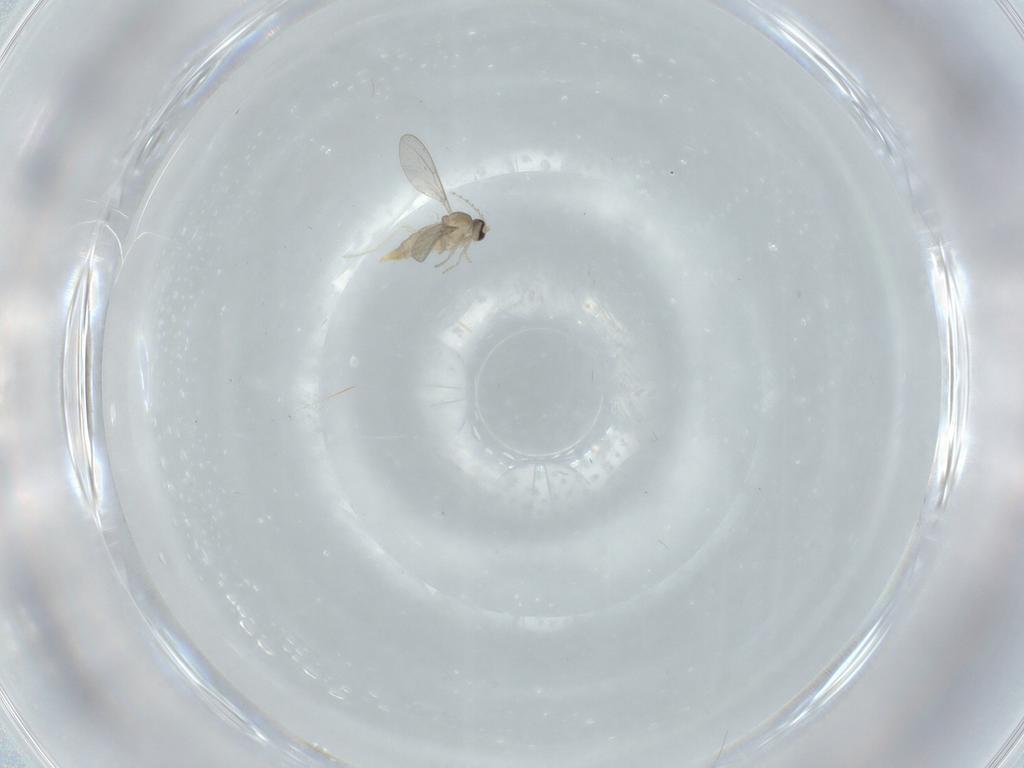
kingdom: Animalia
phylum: Arthropoda
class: Insecta
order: Diptera
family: Cecidomyiidae
